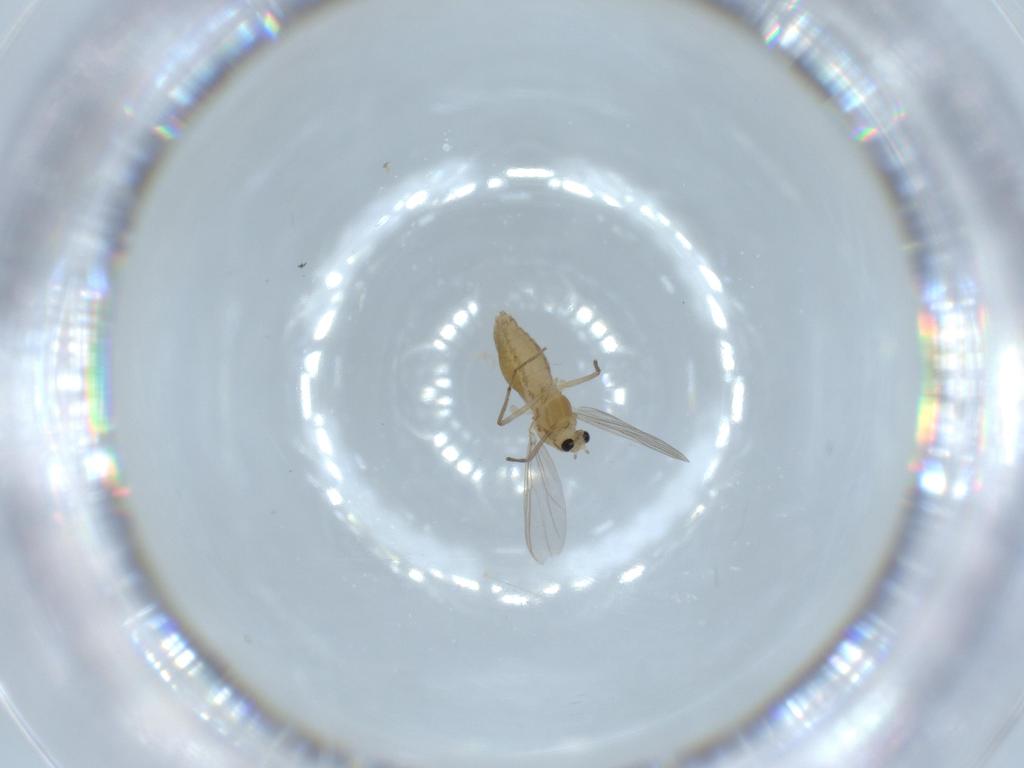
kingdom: Animalia
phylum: Arthropoda
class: Insecta
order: Diptera
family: Chironomidae
